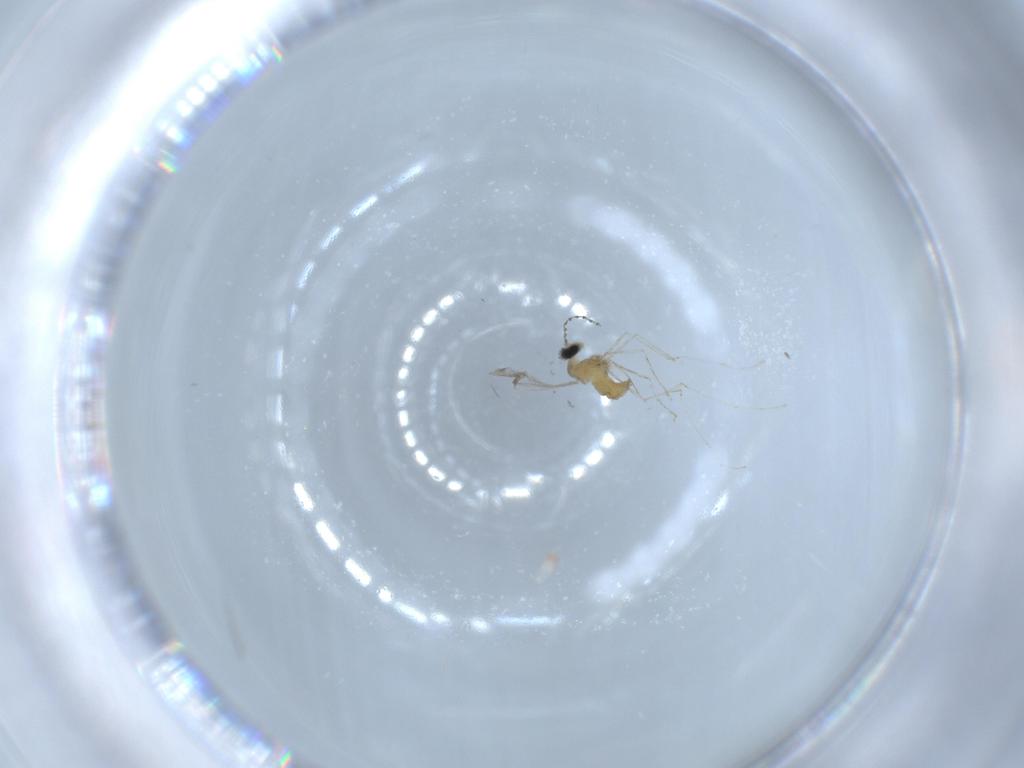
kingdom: Animalia
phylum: Arthropoda
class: Insecta
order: Diptera
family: Cecidomyiidae
